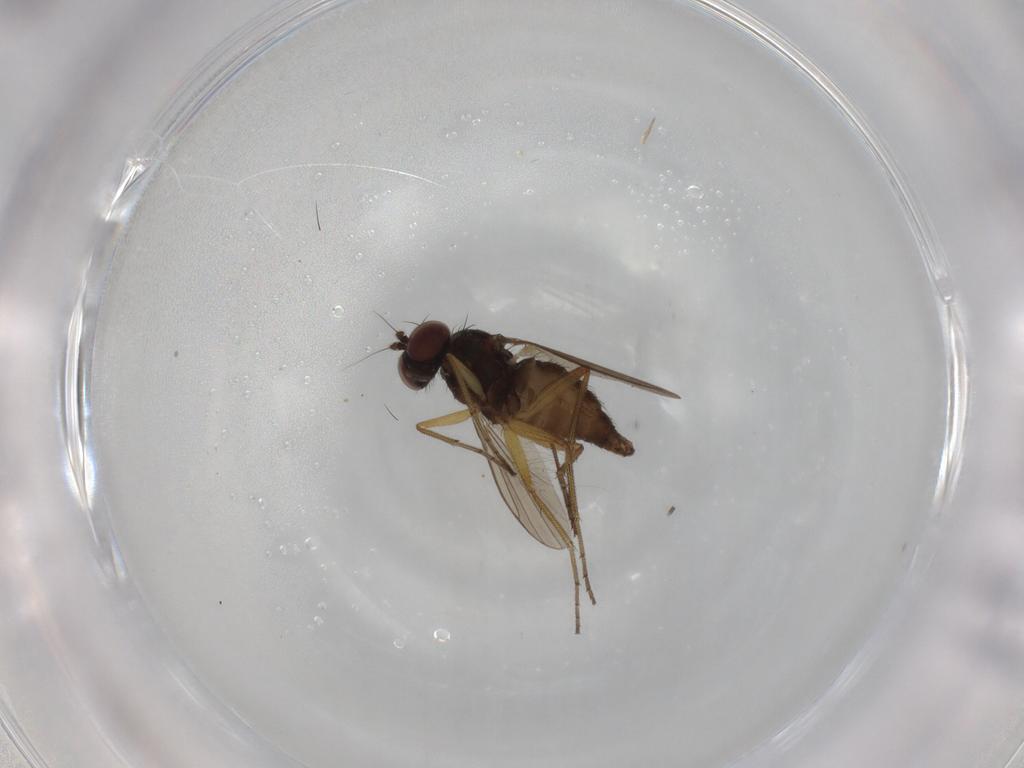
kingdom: Animalia
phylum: Arthropoda
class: Insecta
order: Diptera
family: Dolichopodidae
